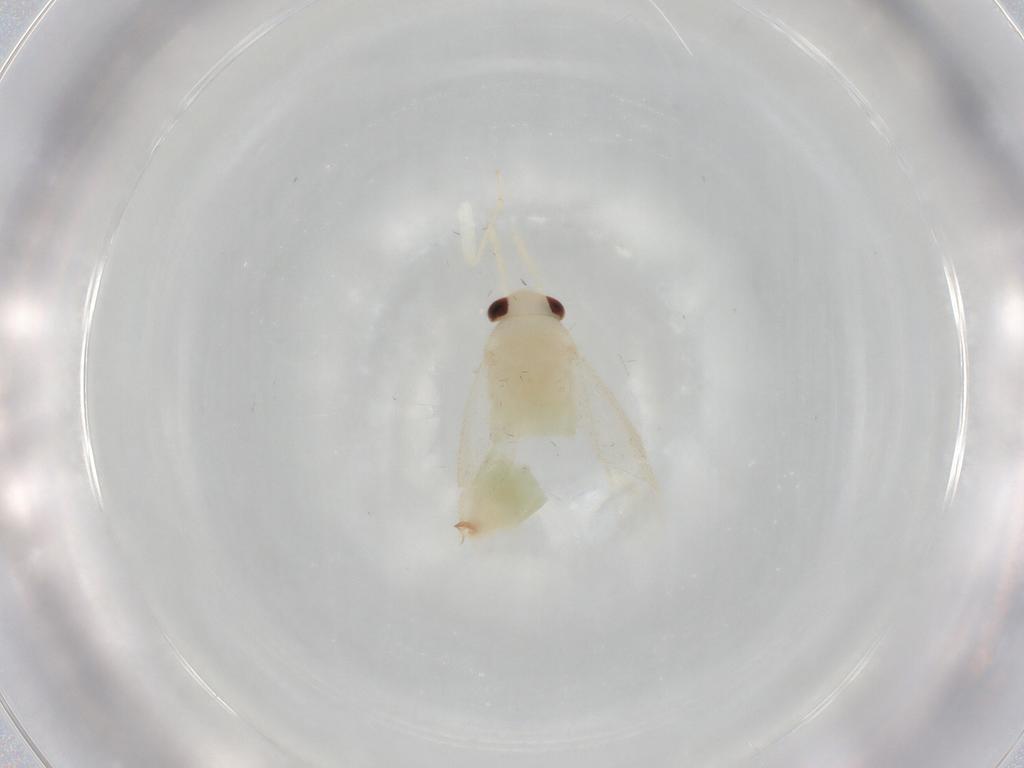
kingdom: Animalia
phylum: Arthropoda
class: Insecta
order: Hemiptera
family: Miridae
